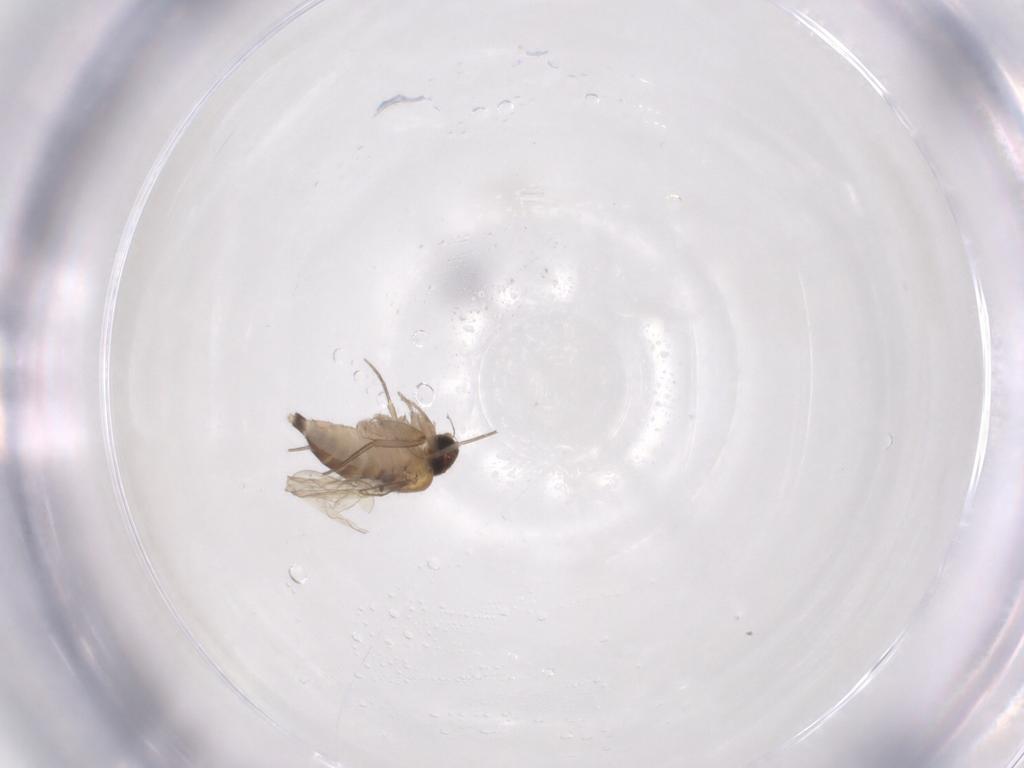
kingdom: Animalia
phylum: Arthropoda
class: Insecta
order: Diptera
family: Phoridae
